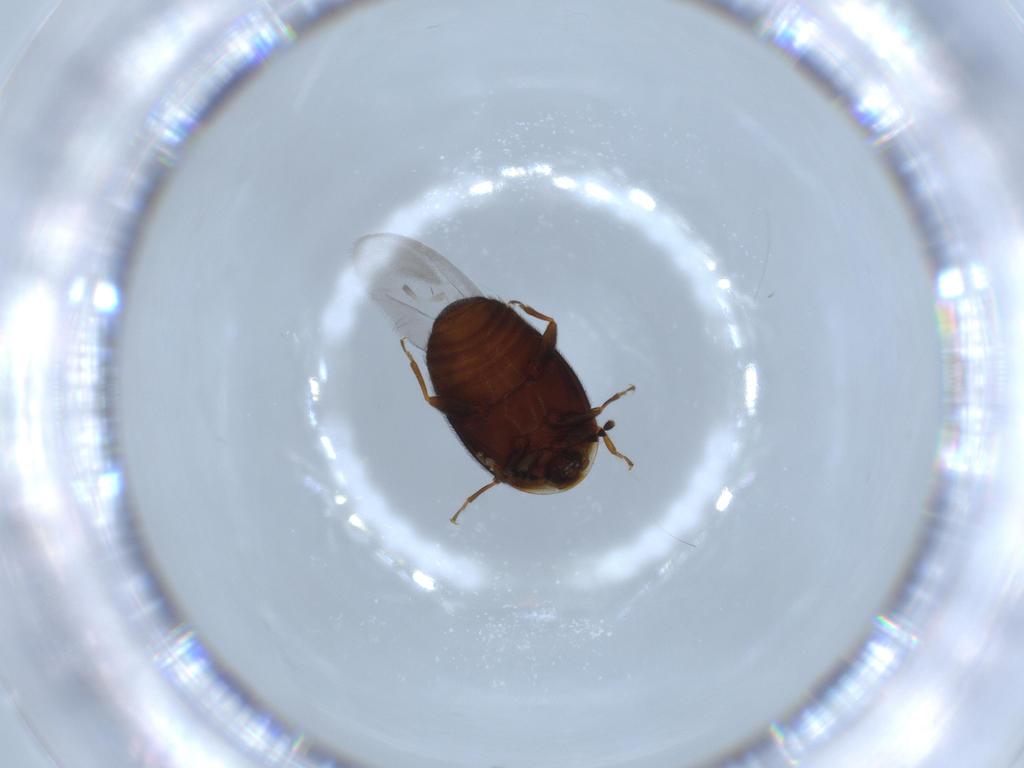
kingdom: Animalia
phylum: Arthropoda
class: Insecta
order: Coleoptera
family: Corylophidae
